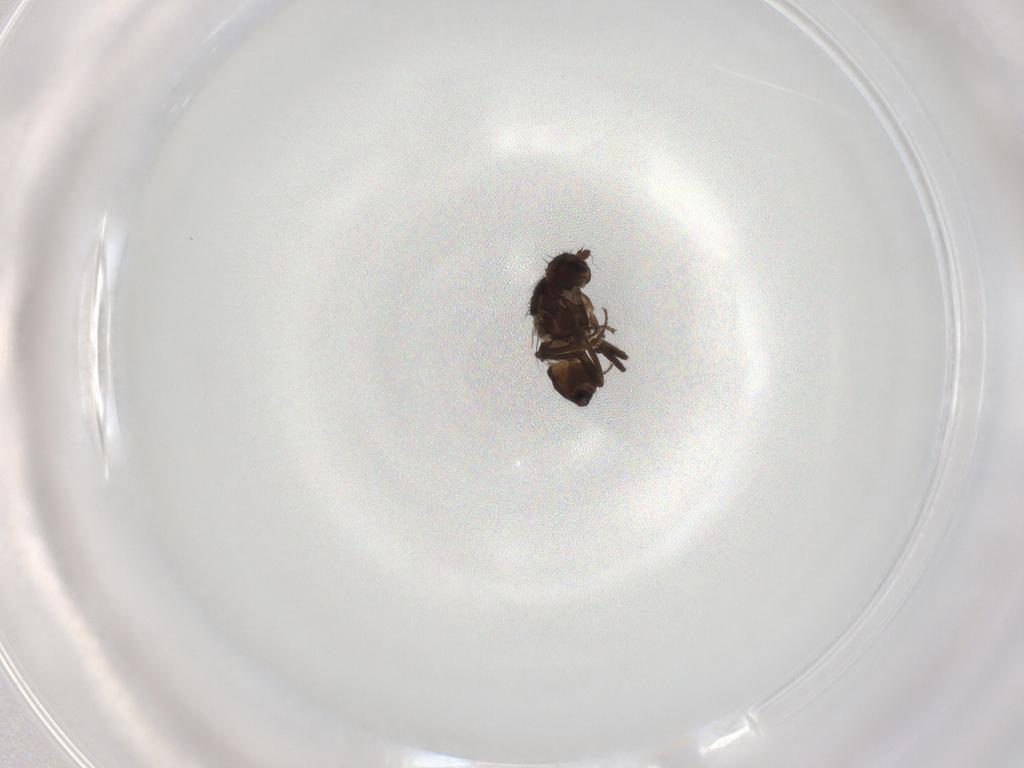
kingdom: Animalia
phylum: Arthropoda
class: Insecta
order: Diptera
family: Sphaeroceridae
